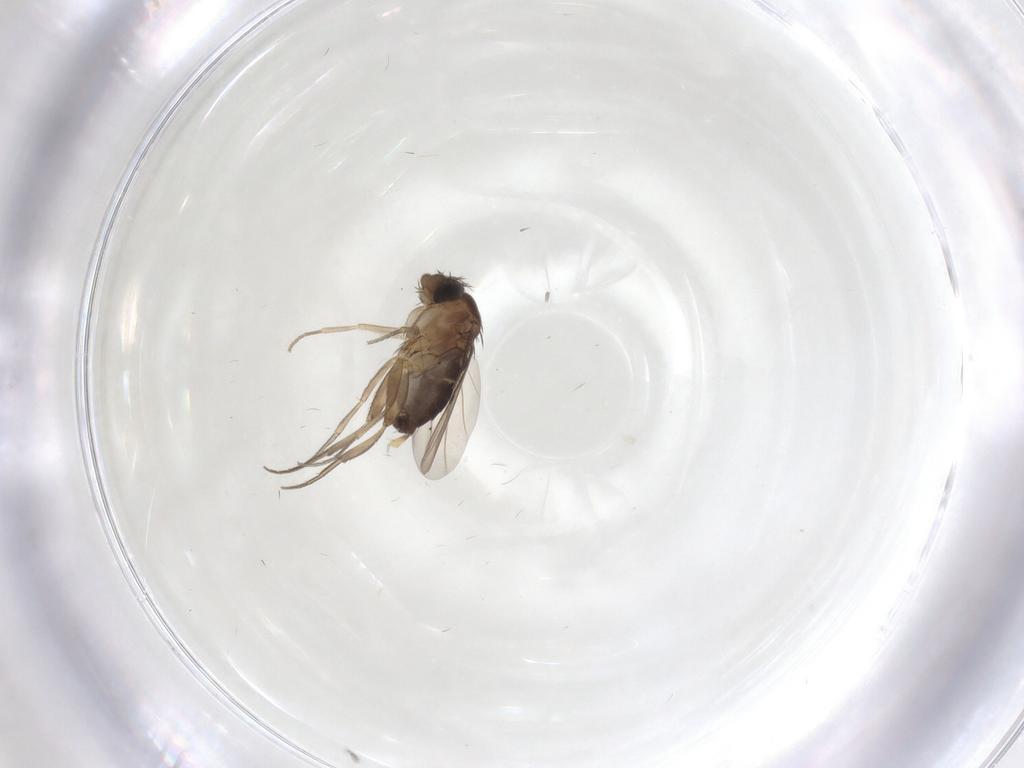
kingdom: Animalia
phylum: Arthropoda
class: Insecta
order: Diptera
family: Phoridae
